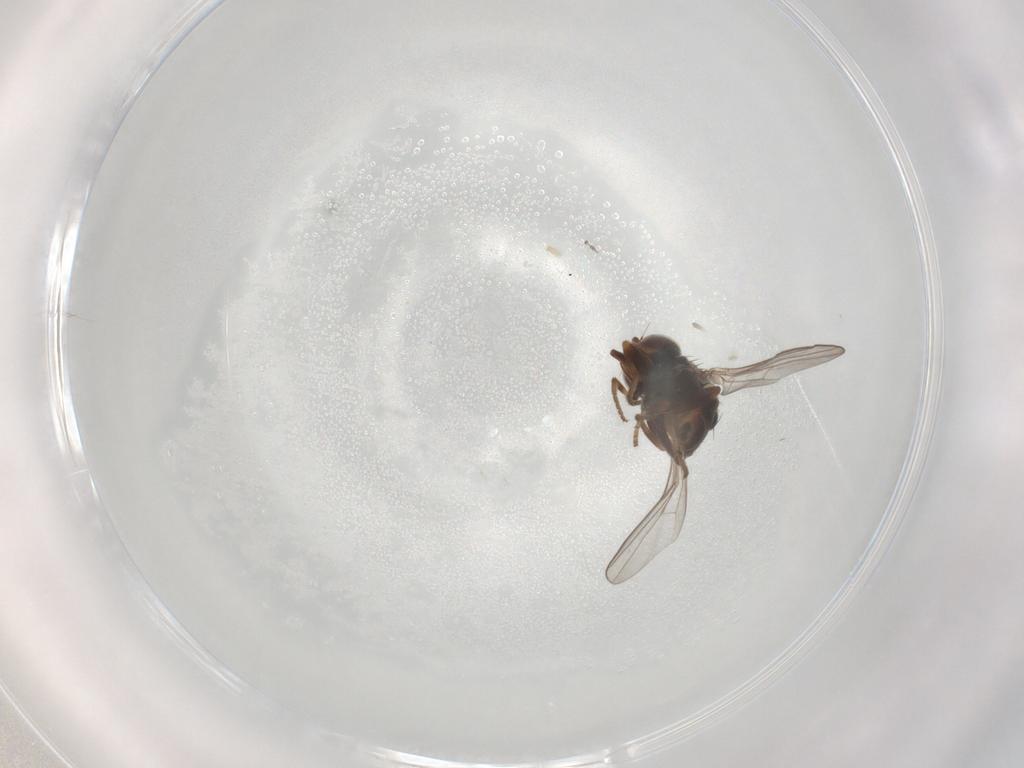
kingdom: Animalia
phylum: Arthropoda
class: Insecta
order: Diptera
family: Chloropidae
